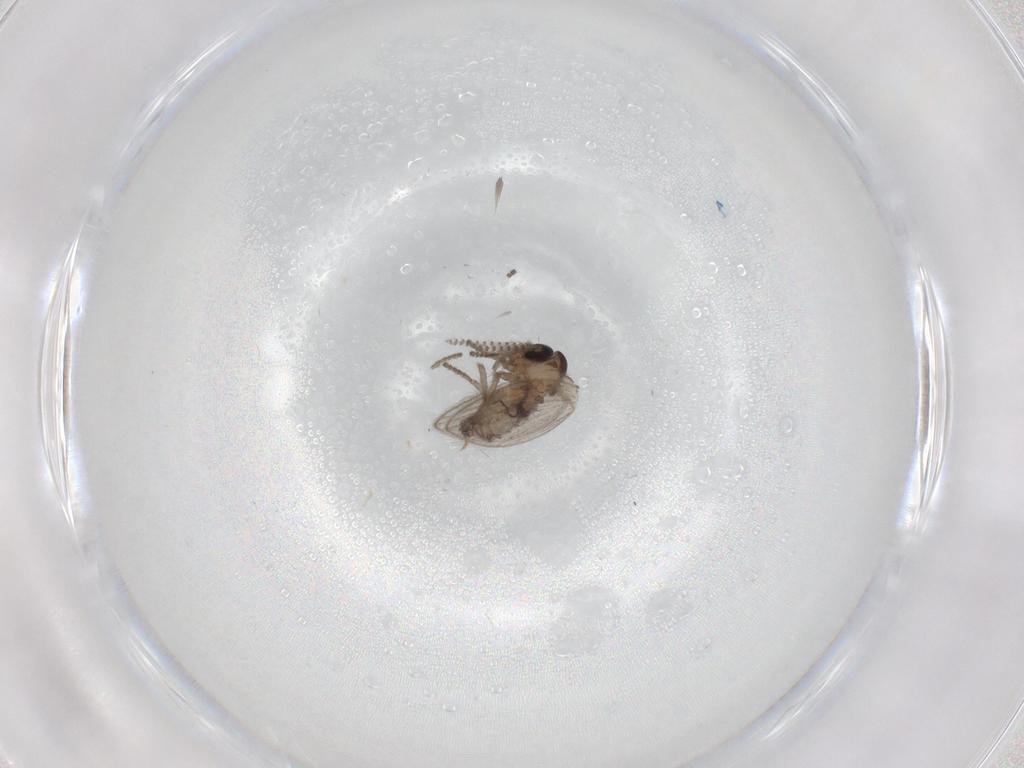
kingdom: Animalia
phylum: Arthropoda
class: Insecta
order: Diptera
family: Psychodidae
